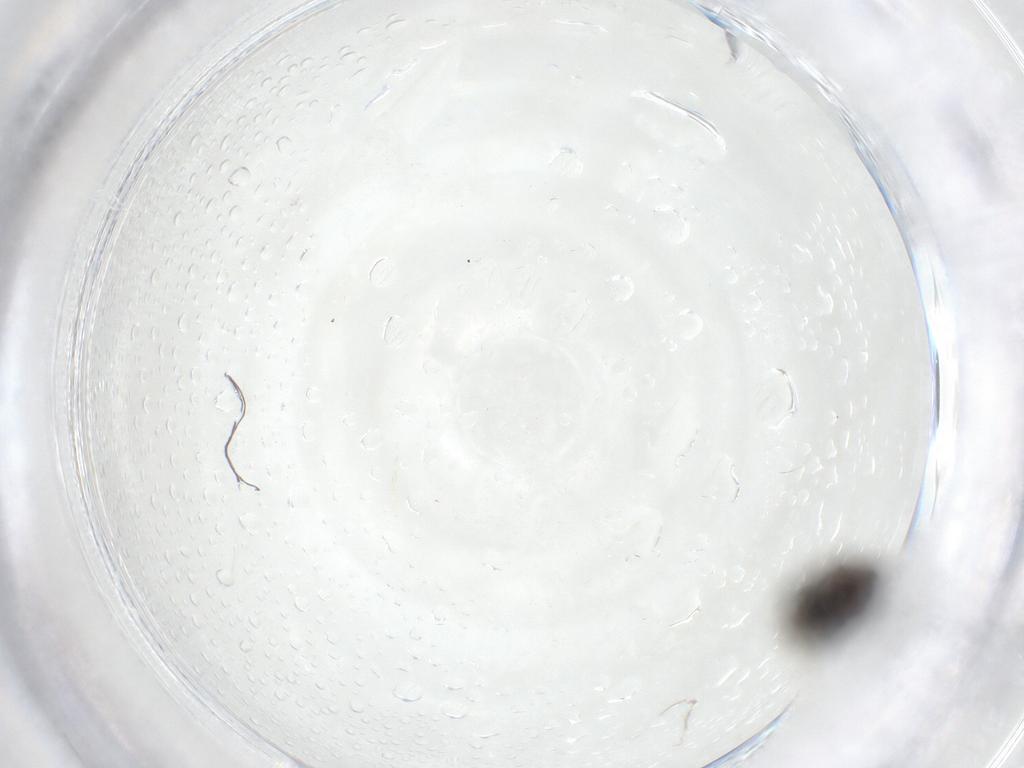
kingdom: Animalia
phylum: Arthropoda
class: Insecta
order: Diptera
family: Phoridae
